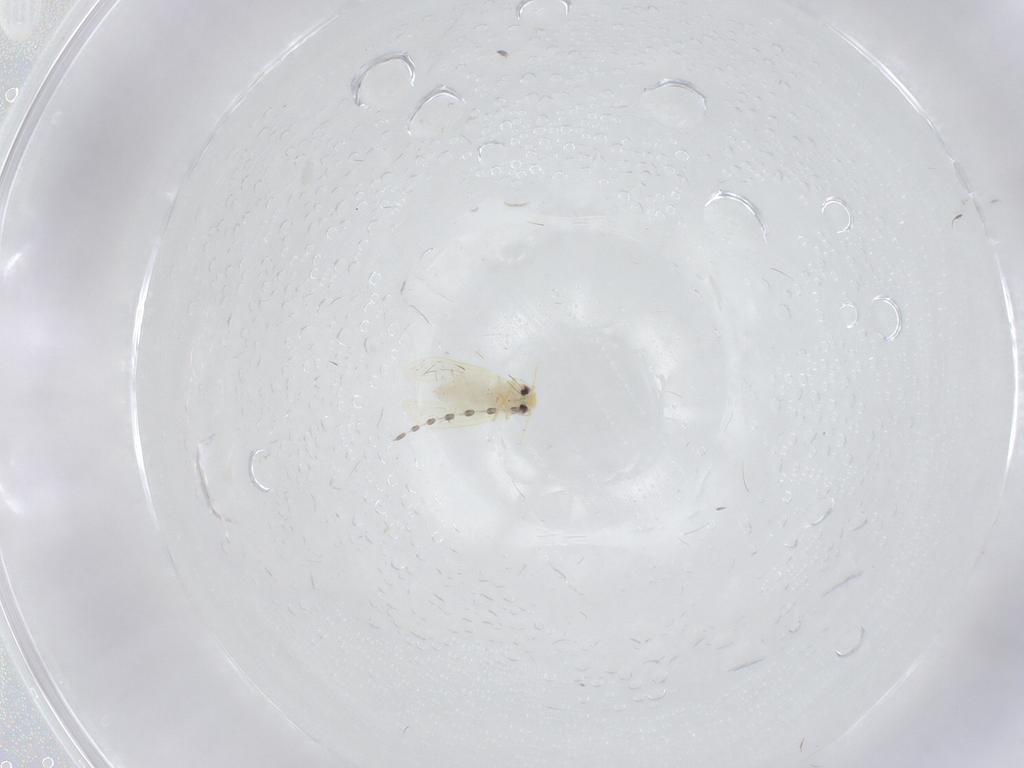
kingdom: Animalia
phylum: Arthropoda
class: Insecta
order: Hemiptera
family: Aleyrodidae
